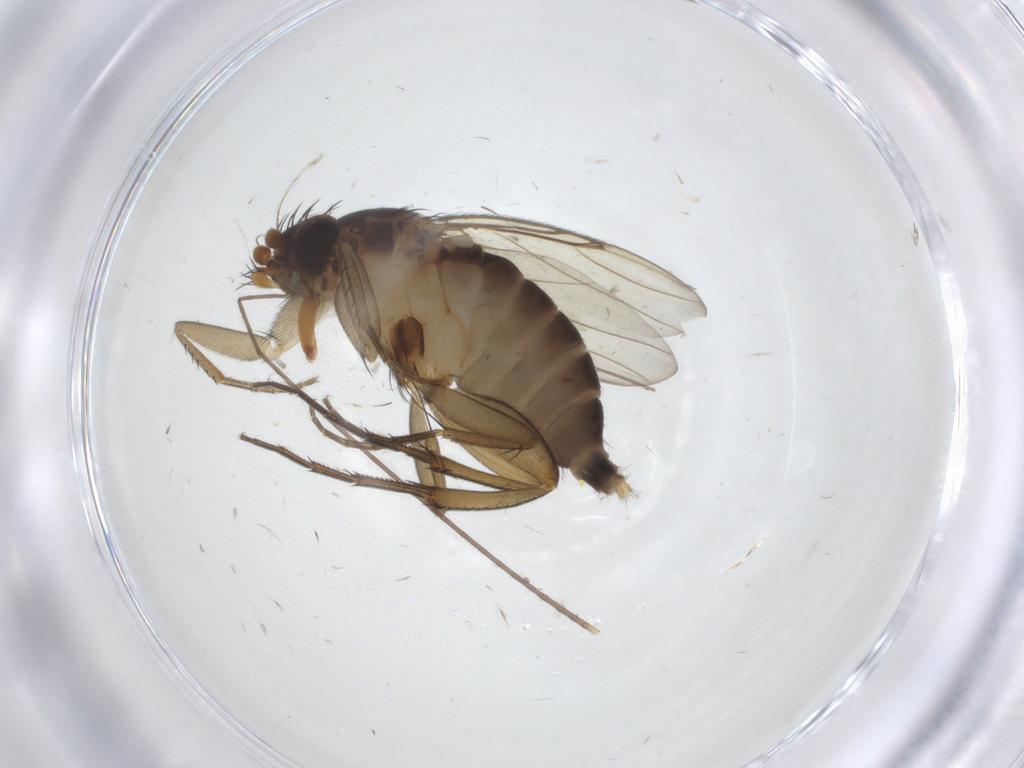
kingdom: Animalia
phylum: Arthropoda
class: Insecta
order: Diptera
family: Phoridae
